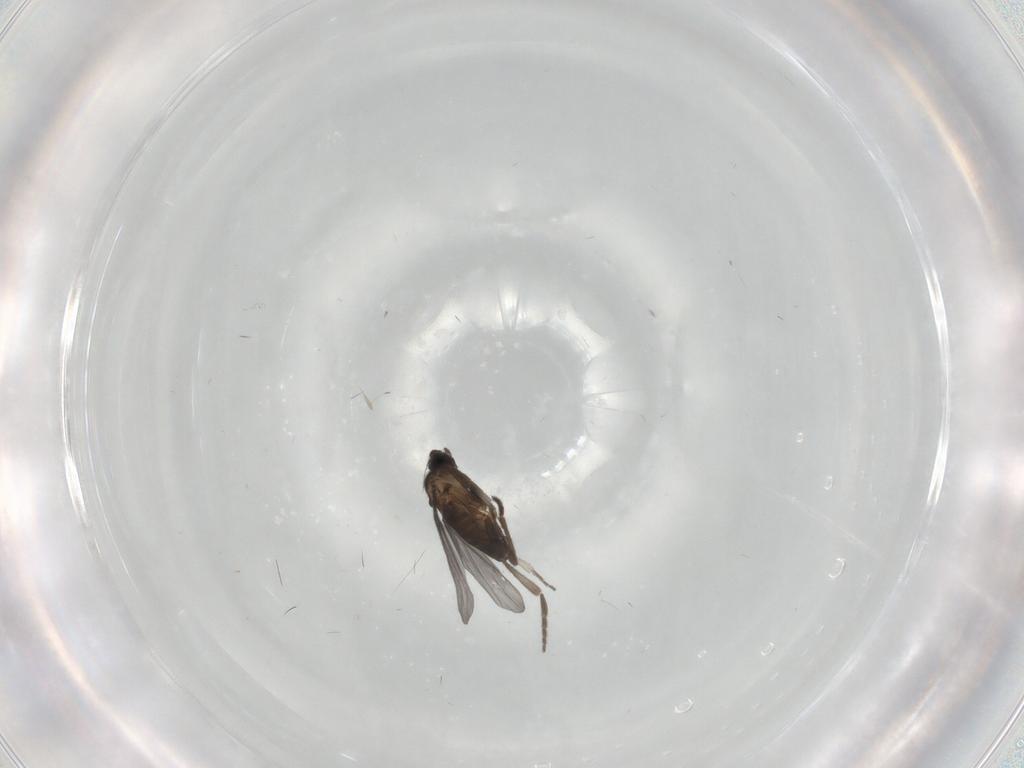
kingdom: Animalia
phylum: Arthropoda
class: Insecta
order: Diptera
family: Phoridae
